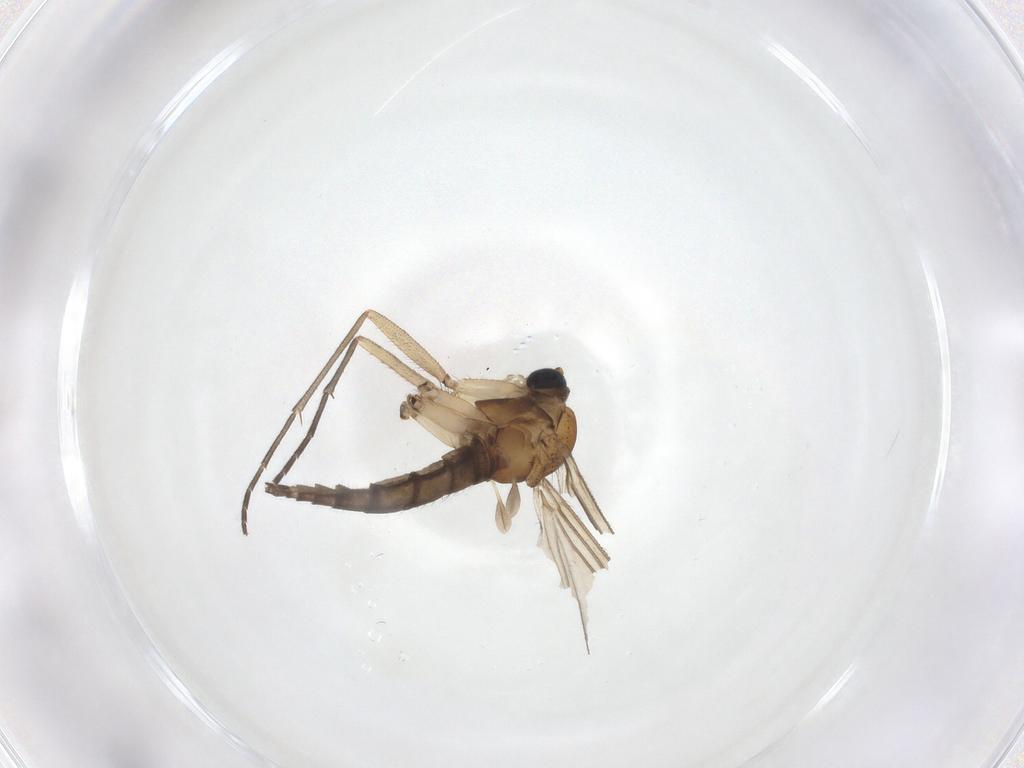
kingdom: Animalia
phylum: Arthropoda
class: Insecta
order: Diptera
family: Sciaridae
